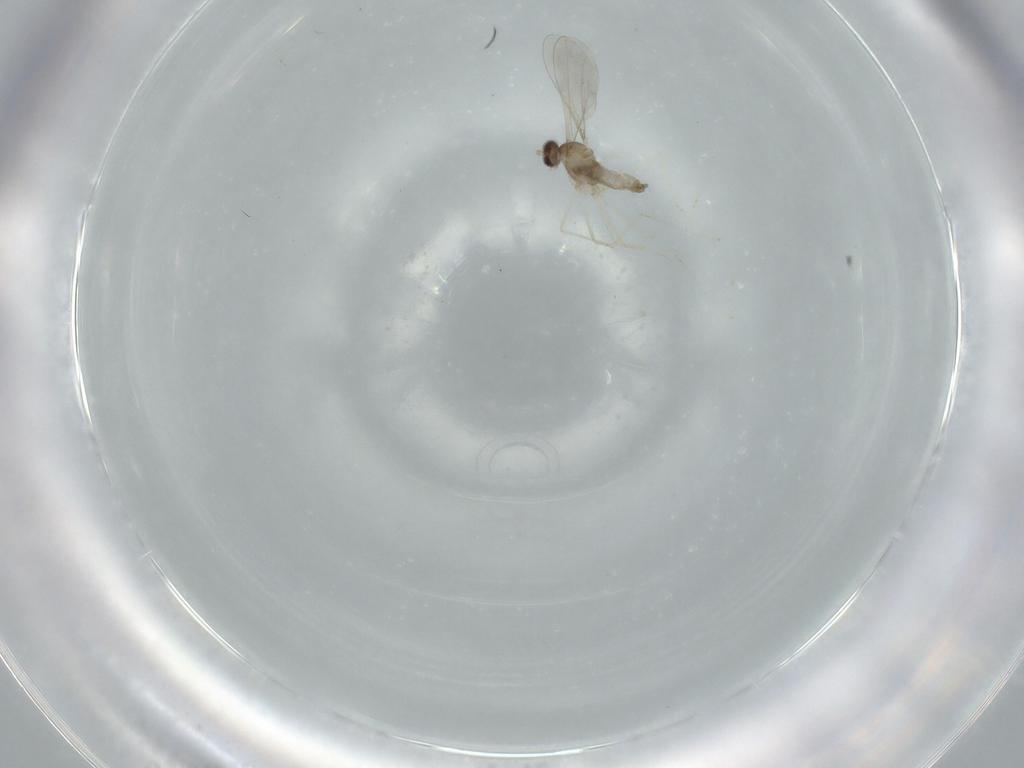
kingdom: Animalia
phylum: Arthropoda
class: Insecta
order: Diptera
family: Cecidomyiidae
